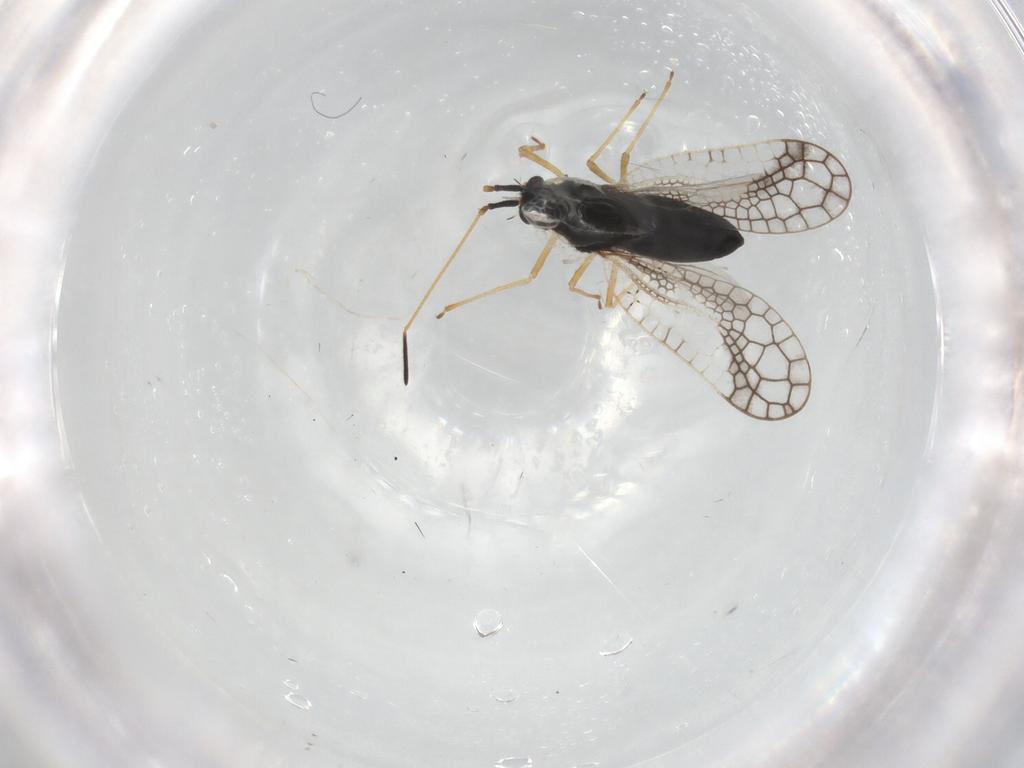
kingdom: Animalia
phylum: Arthropoda
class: Insecta
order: Hemiptera
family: Tingidae
